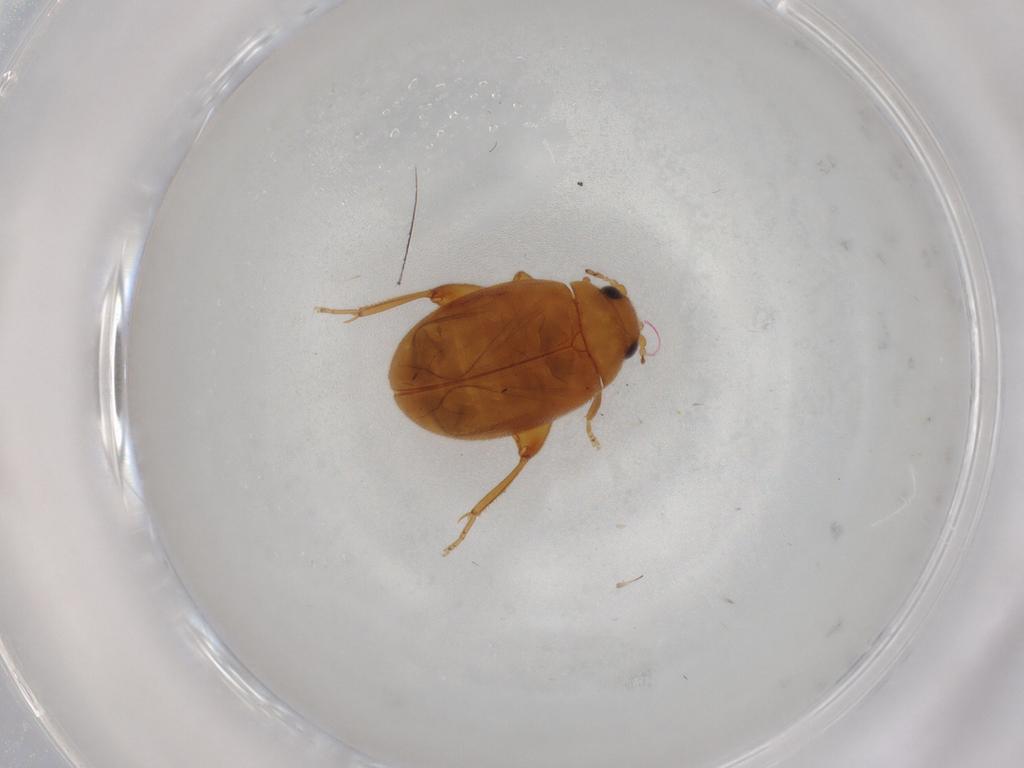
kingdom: Animalia
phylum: Arthropoda
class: Insecta
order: Coleoptera
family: Scirtidae
